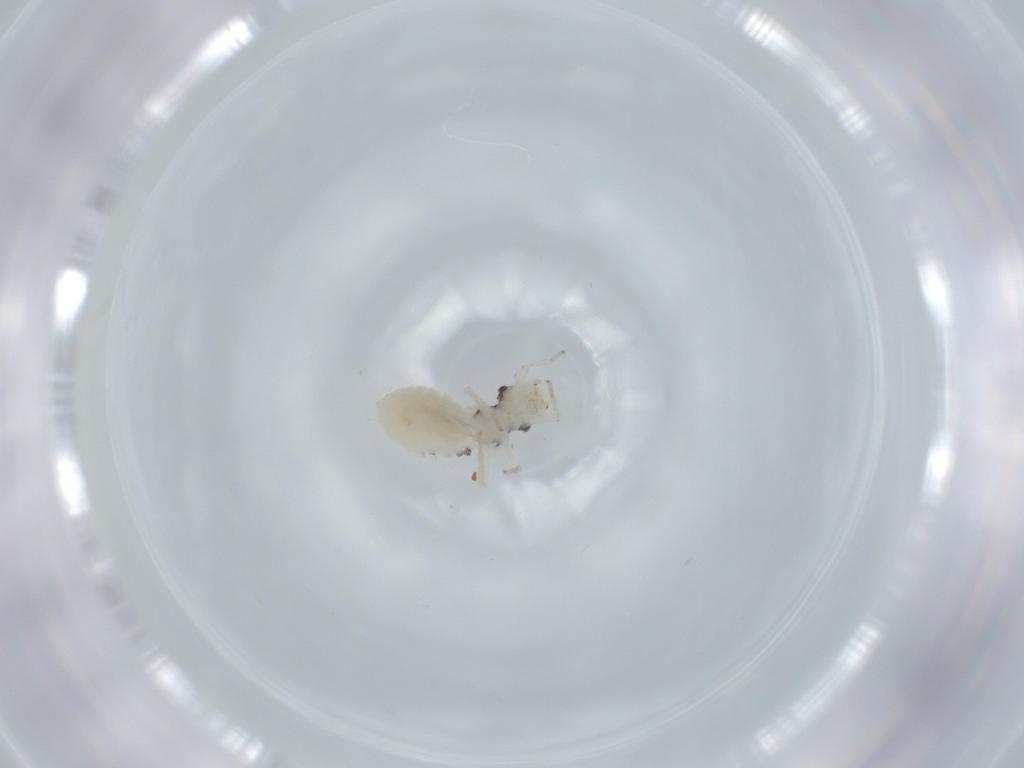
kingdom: Animalia
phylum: Arthropoda
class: Insecta
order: Psocodea
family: Pseudocaeciliidae
